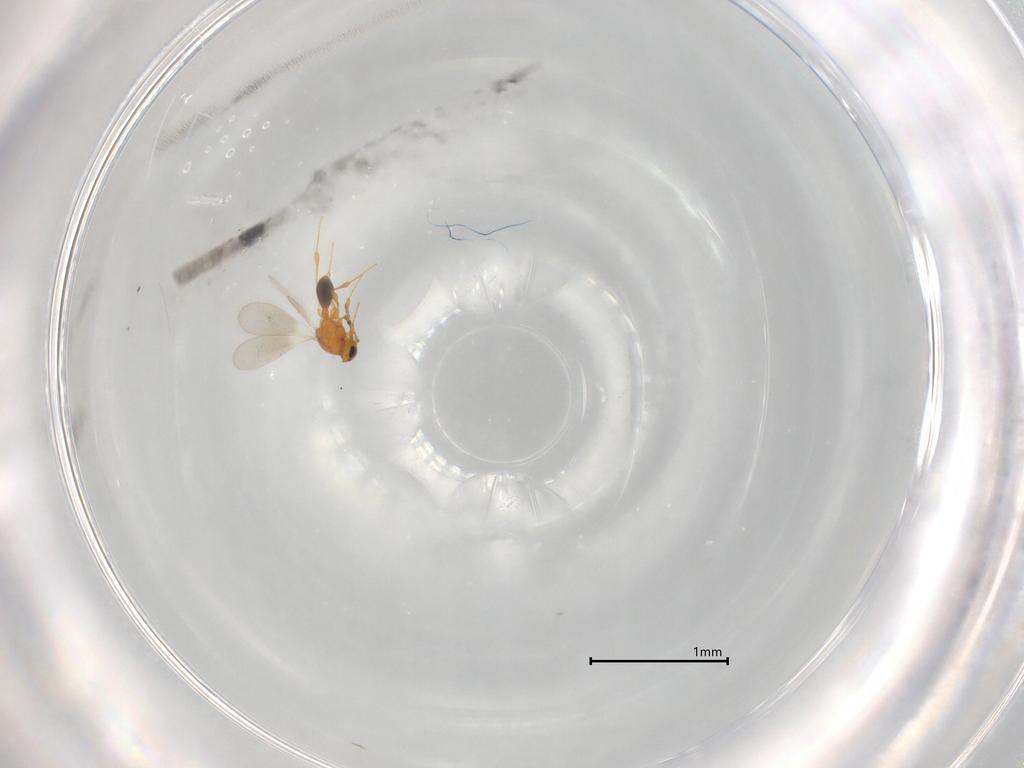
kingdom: Animalia
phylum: Arthropoda
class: Insecta
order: Hymenoptera
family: Platygastridae
